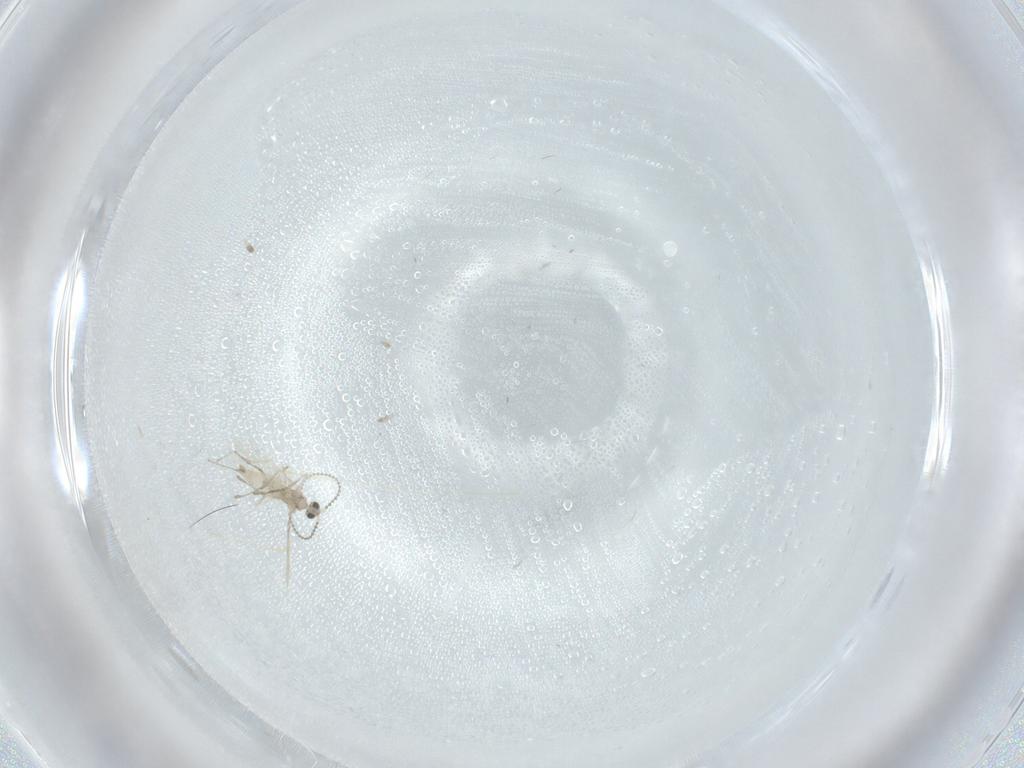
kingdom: Animalia
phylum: Arthropoda
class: Insecta
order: Diptera
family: Cecidomyiidae
